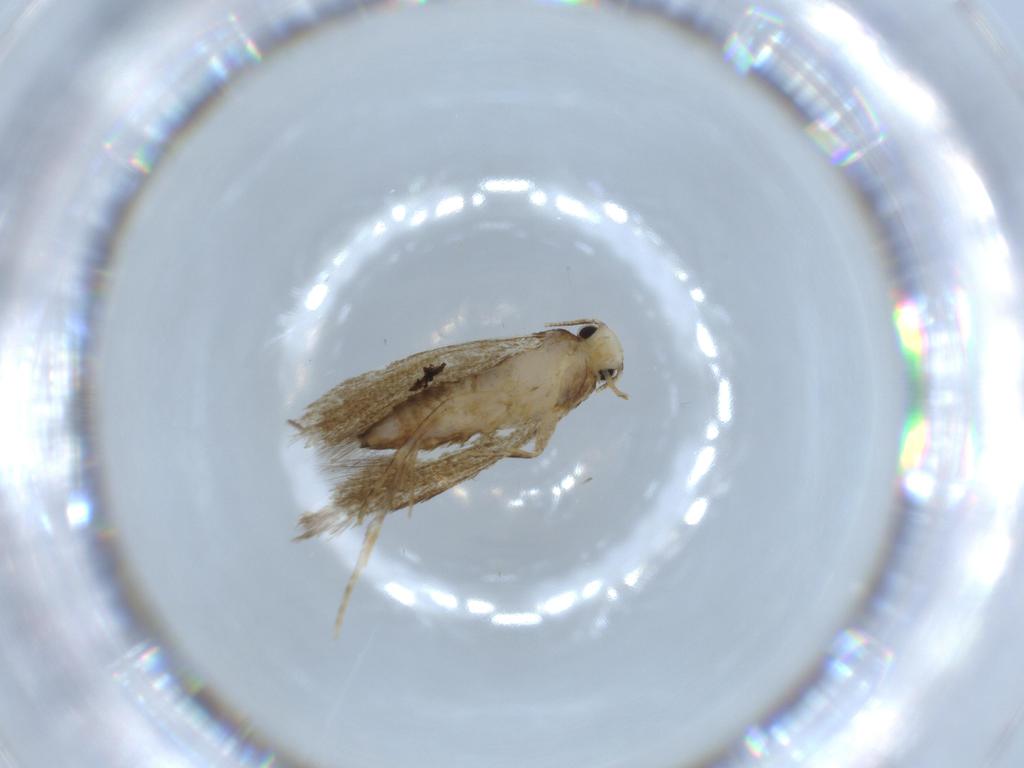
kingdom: Animalia
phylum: Arthropoda
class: Insecta
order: Lepidoptera
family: Tineidae
